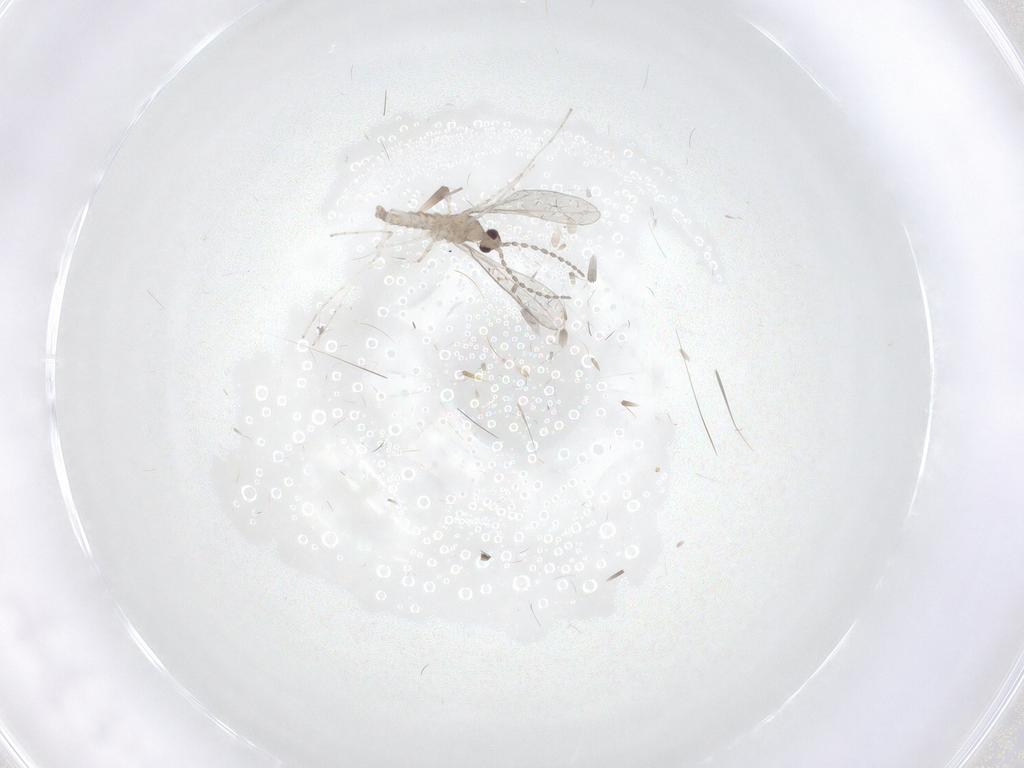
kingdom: Animalia
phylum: Arthropoda
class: Insecta
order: Diptera
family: Cecidomyiidae
